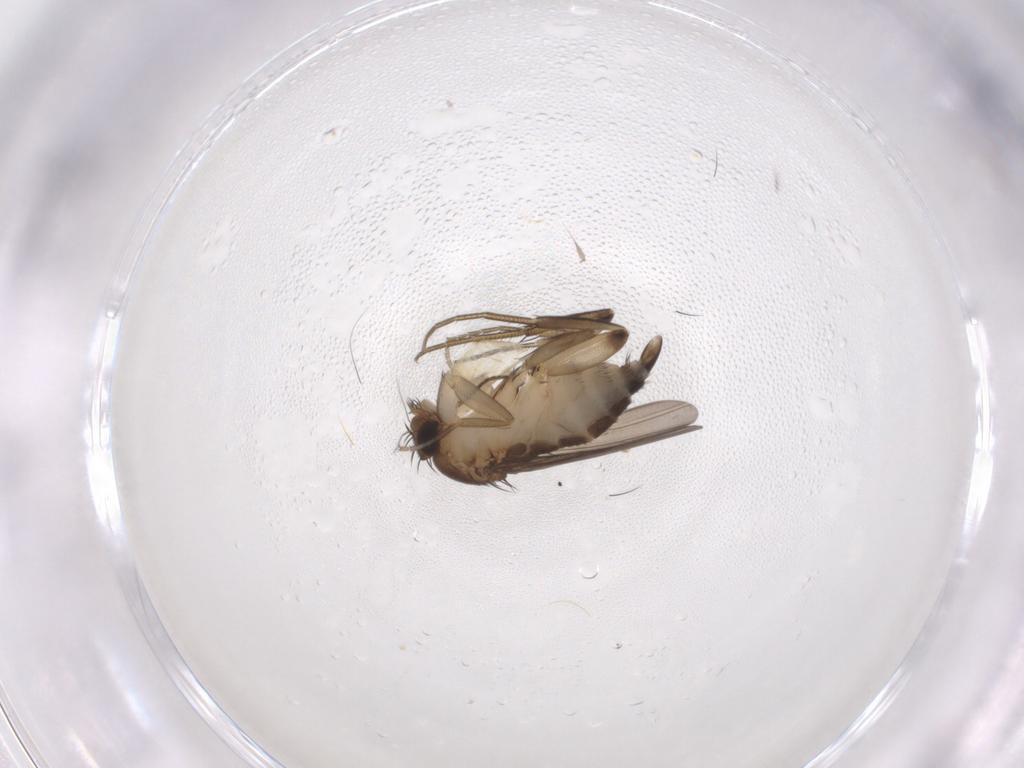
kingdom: Animalia
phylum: Arthropoda
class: Insecta
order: Diptera
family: Phoridae
